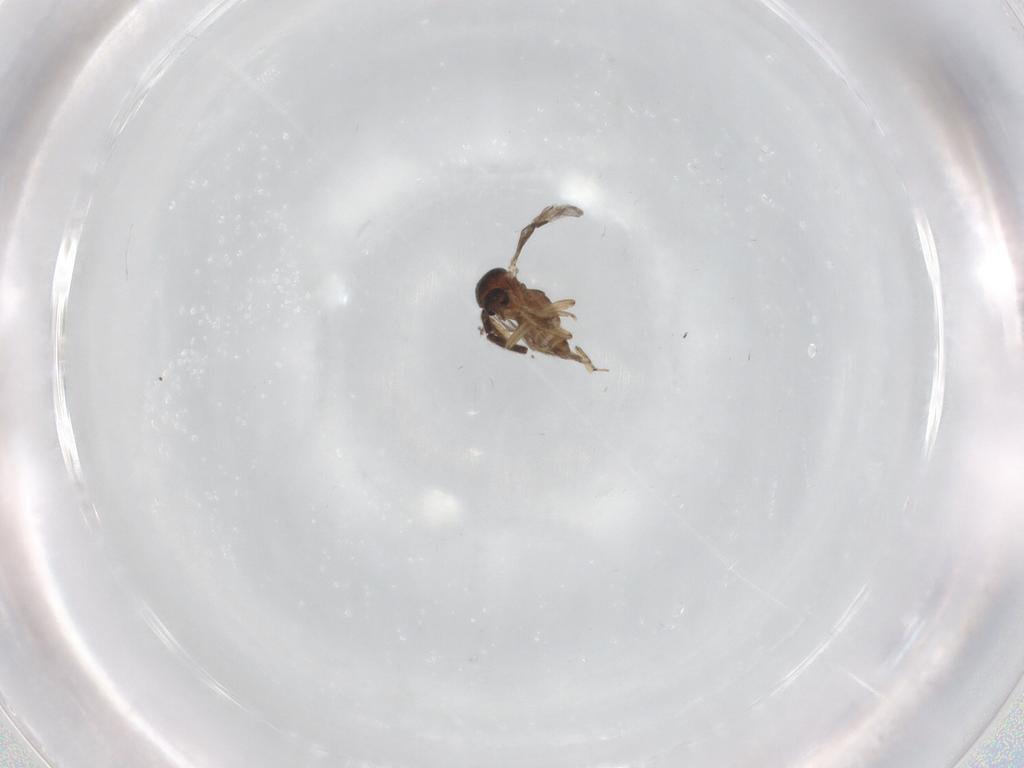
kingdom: Animalia
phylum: Arthropoda
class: Insecta
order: Diptera
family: Ceratopogonidae
